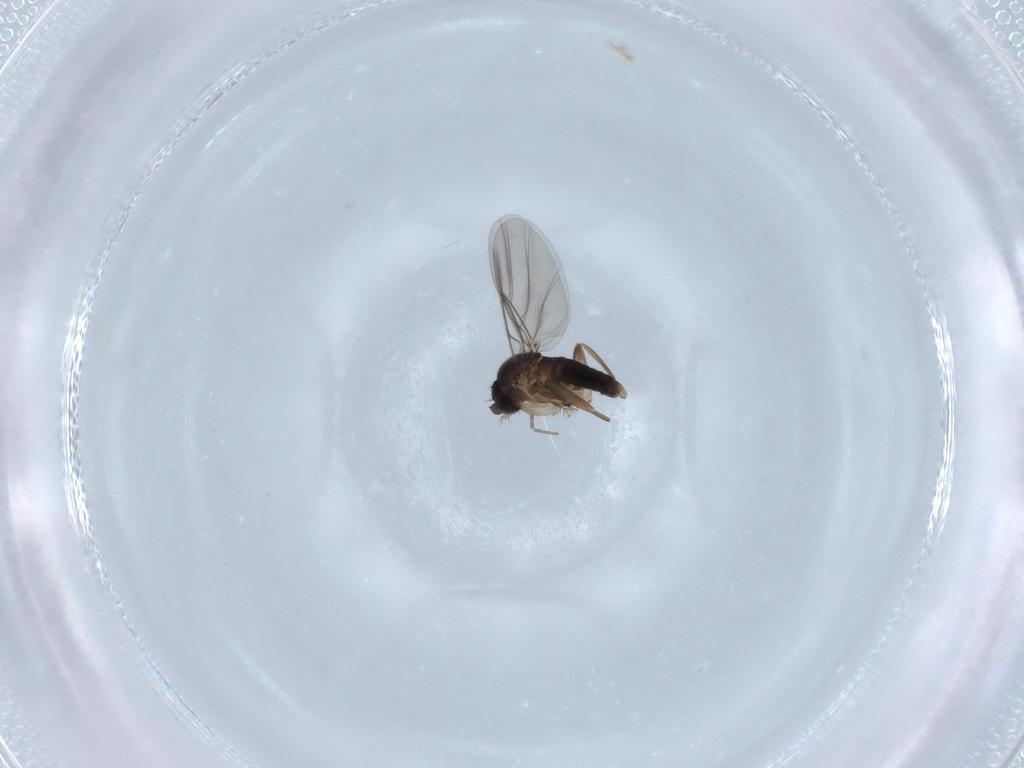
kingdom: Animalia
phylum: Arthropoda
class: Insecta
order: Diptera
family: Phoridae
